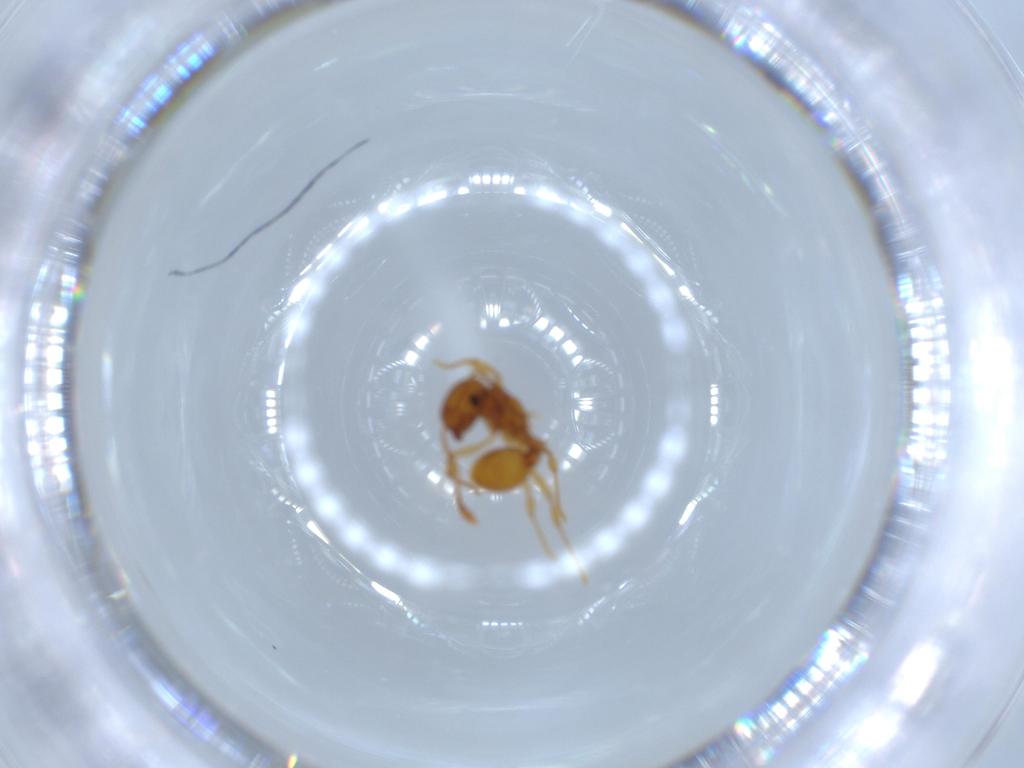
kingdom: Animalia
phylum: Arthropoda
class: Insecta
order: Hymenoptera
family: Formicidae
